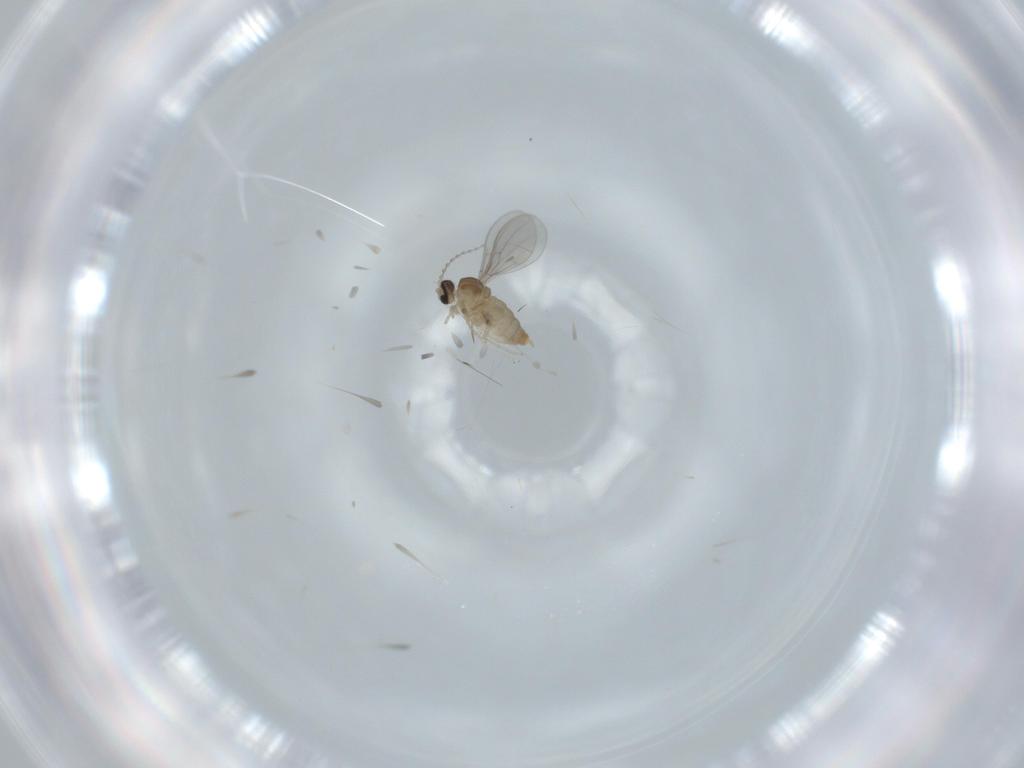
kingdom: Animalia
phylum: Arthropoda
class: Insecta
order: Diptera
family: Cecidomyiidae
